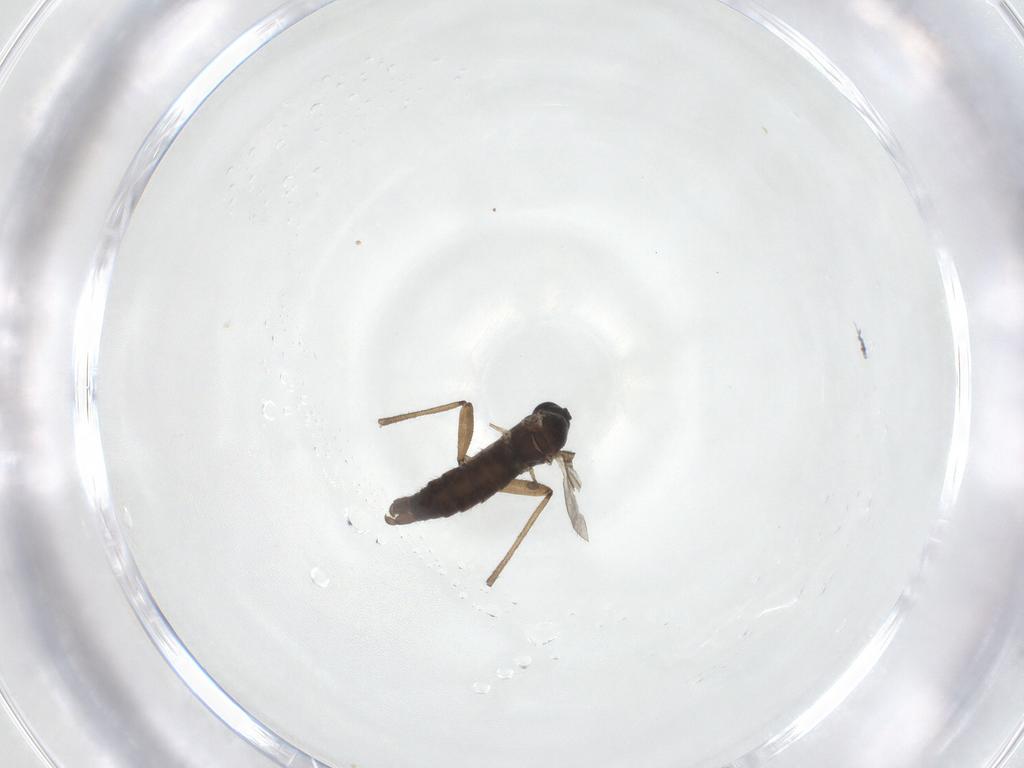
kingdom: Animalia
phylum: Arthropoda
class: Insecta
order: Diptera
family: Sciaridae
